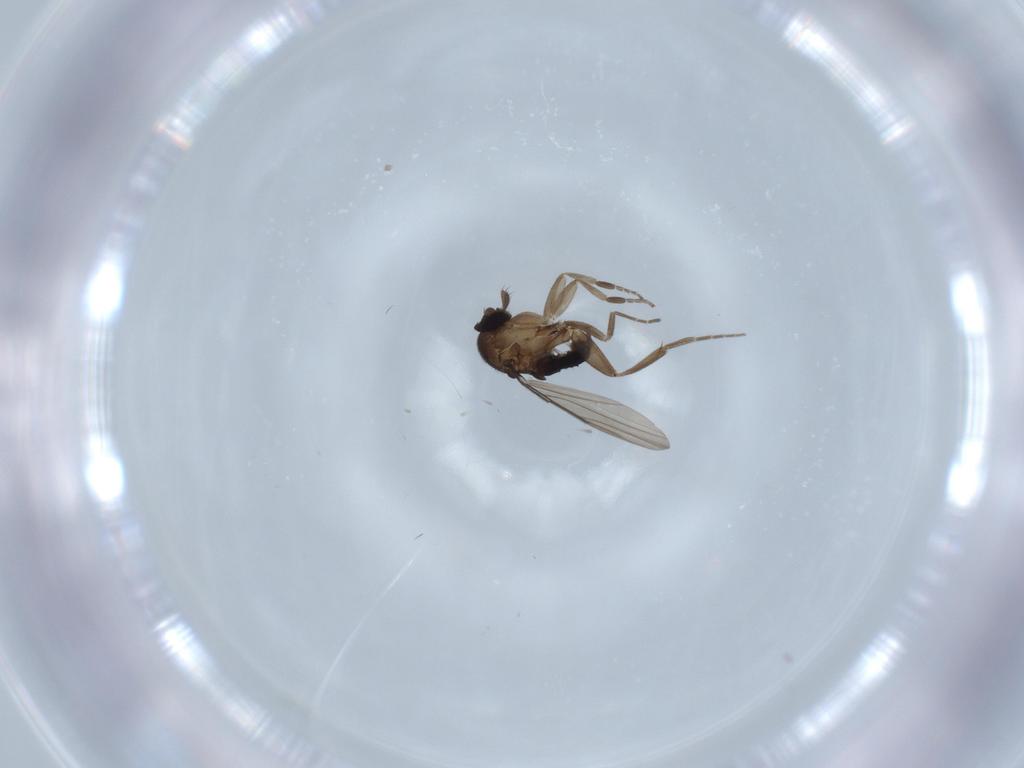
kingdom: Animalia
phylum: Arthropoda
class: Insecta
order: Diptera
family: Phoridae
